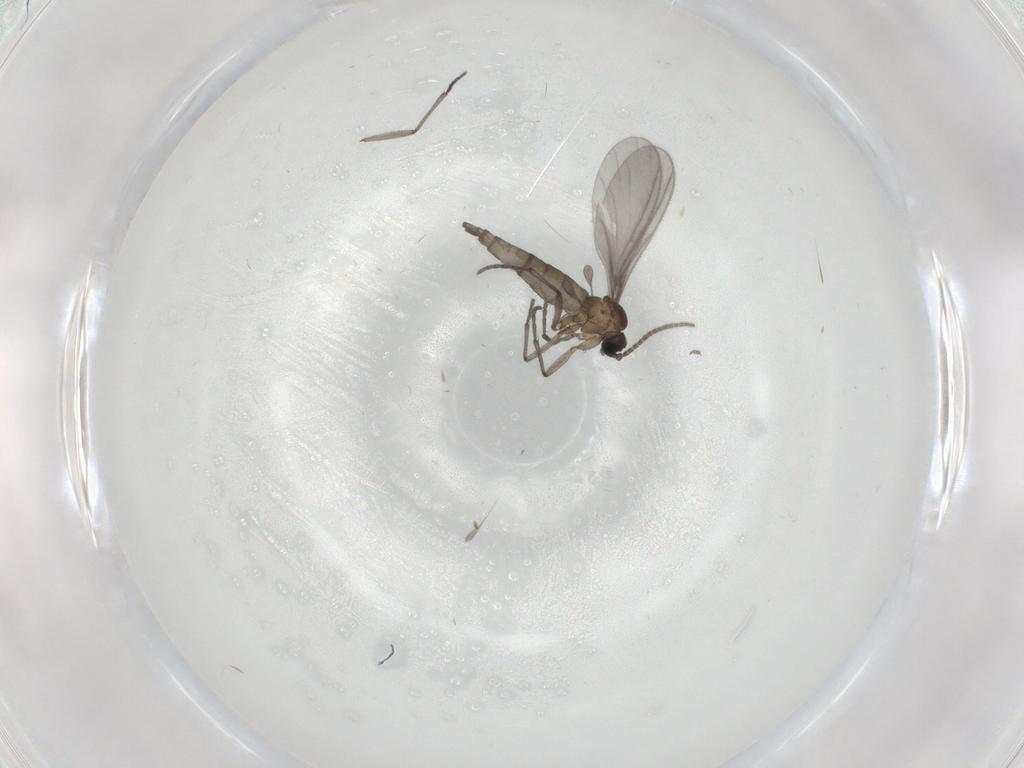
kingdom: Animalia
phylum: Arthropoda
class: Insecta
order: Diptera
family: Sciaridae
